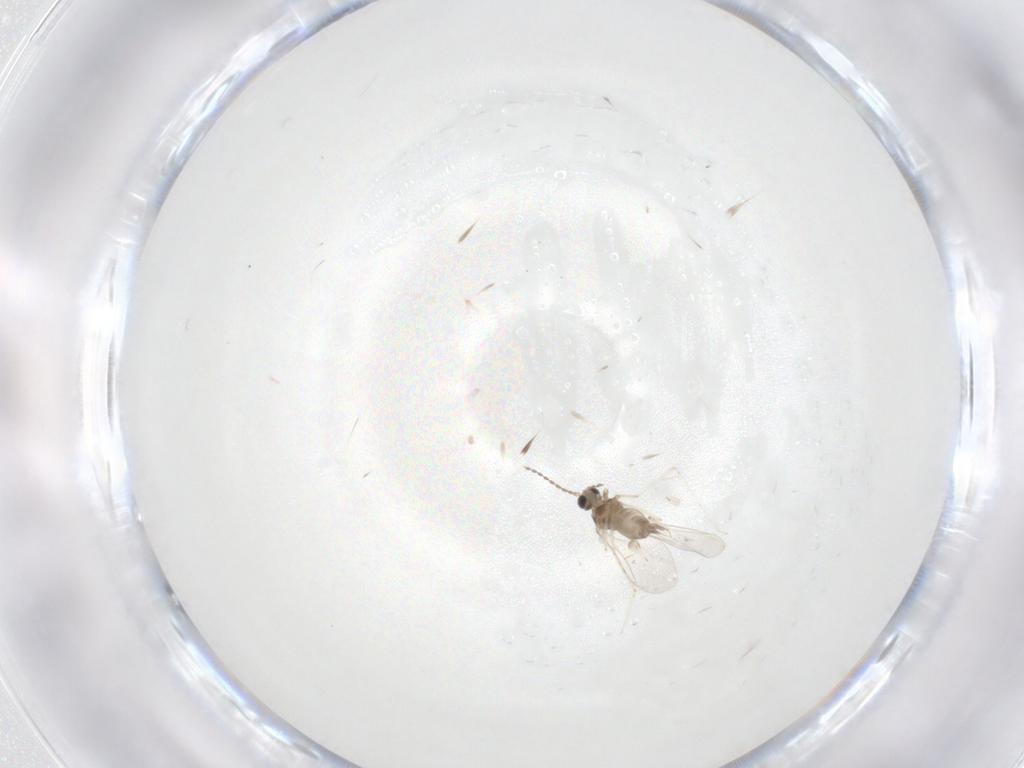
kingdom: Animalia
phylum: Arthropoda
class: Insecta
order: Diptera
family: Cecidomyiidae
